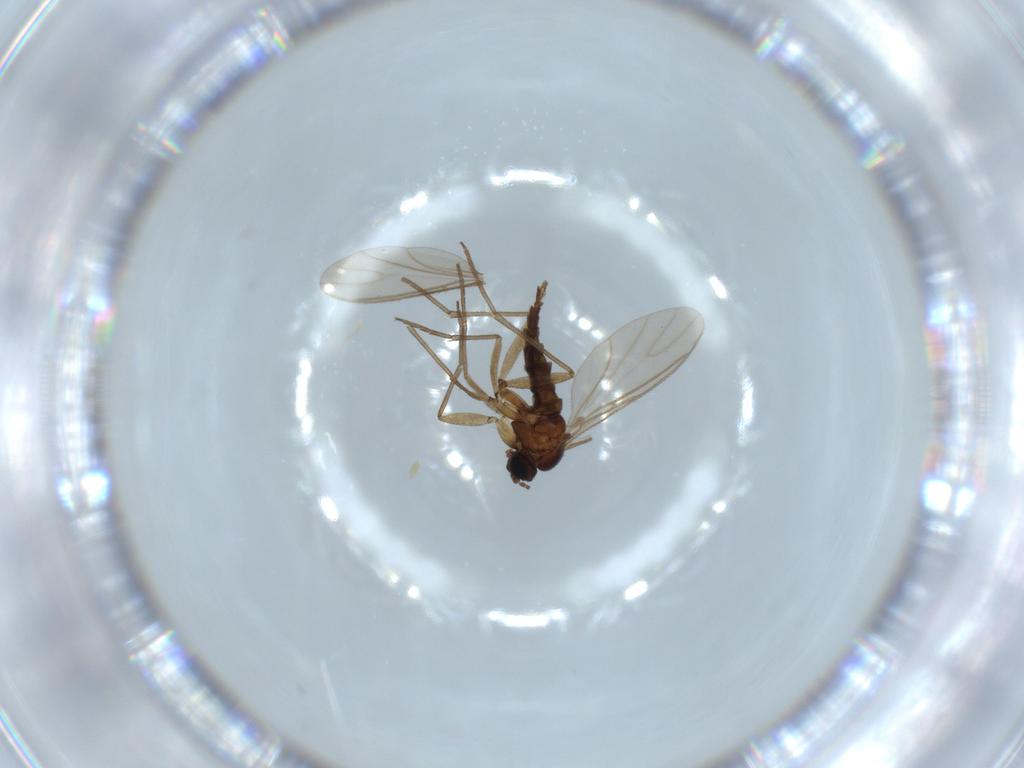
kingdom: Animalia
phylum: Arthropoda
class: Insecta
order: Diptera
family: Sciaridae
